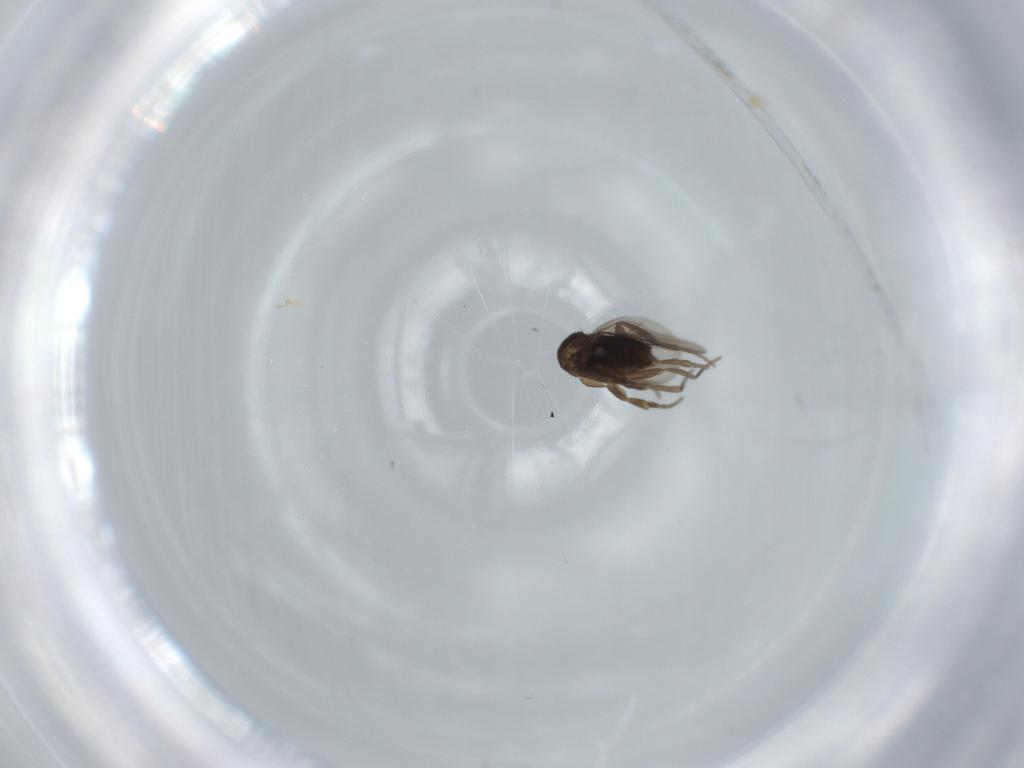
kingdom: Animalia
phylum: Arthropoda
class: Insecta
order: Diptera
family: Phoridae
